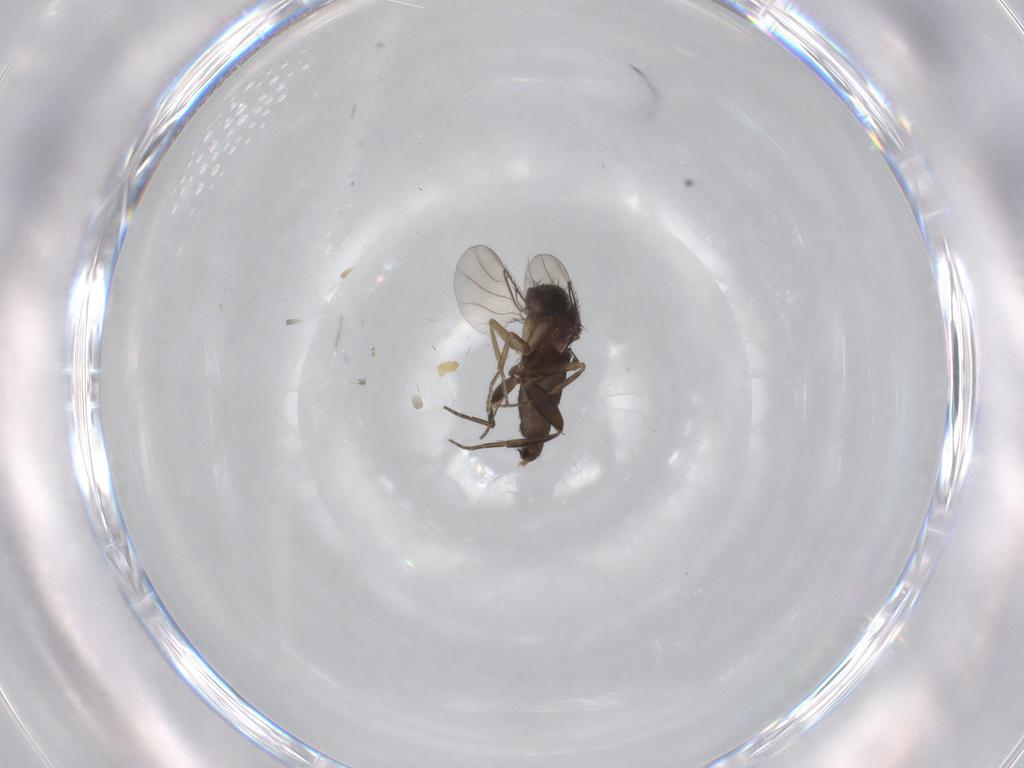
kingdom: Animalia
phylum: Arthropoda
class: Insecta
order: Diptera
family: Phoridae
